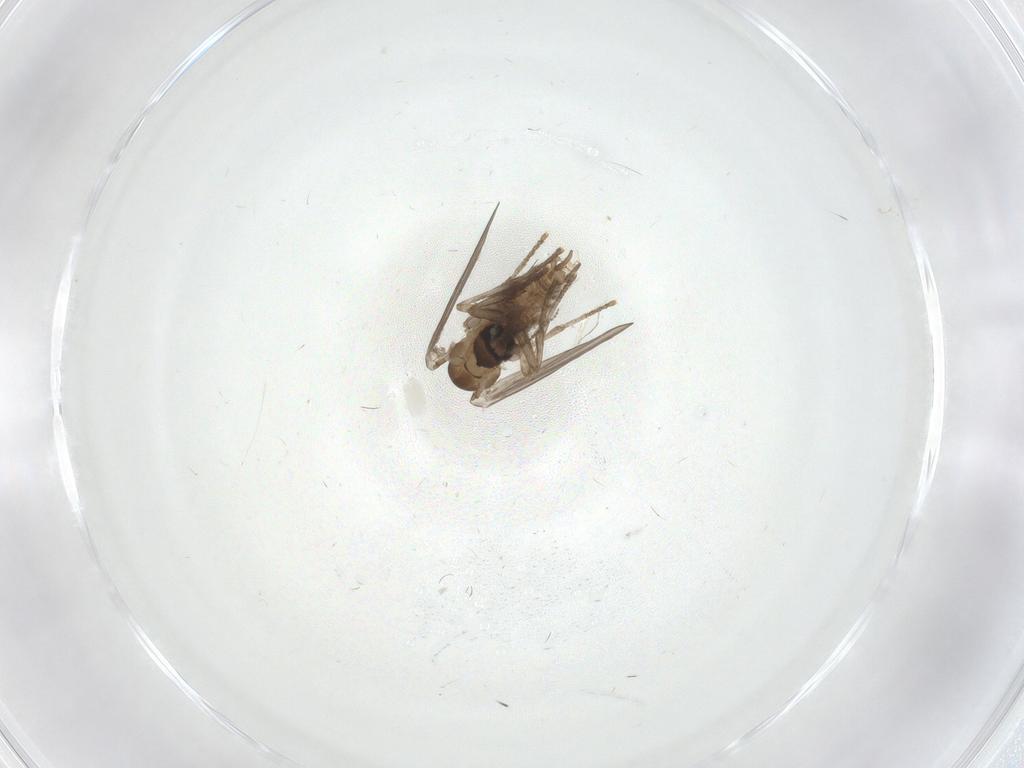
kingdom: Animalia
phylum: Arthropoda
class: Insecta
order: Diptera
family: Psychodidae
